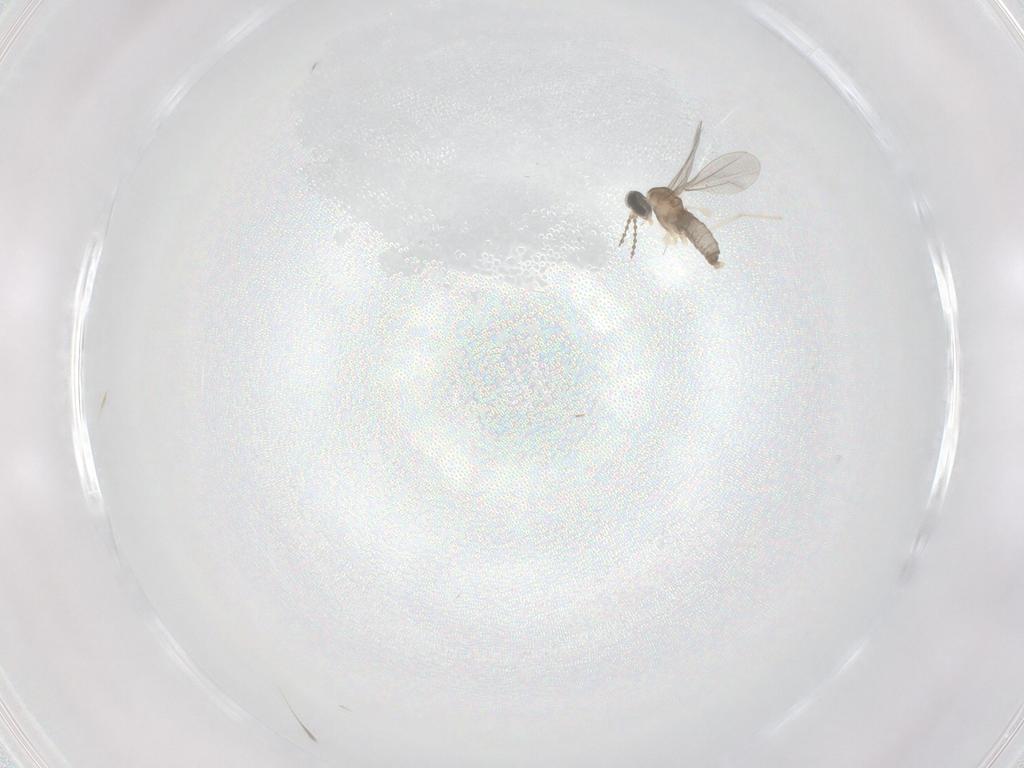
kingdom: Animalia
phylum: Arthropoda
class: Insecta
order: Diptera
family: Cecidomyiidae
